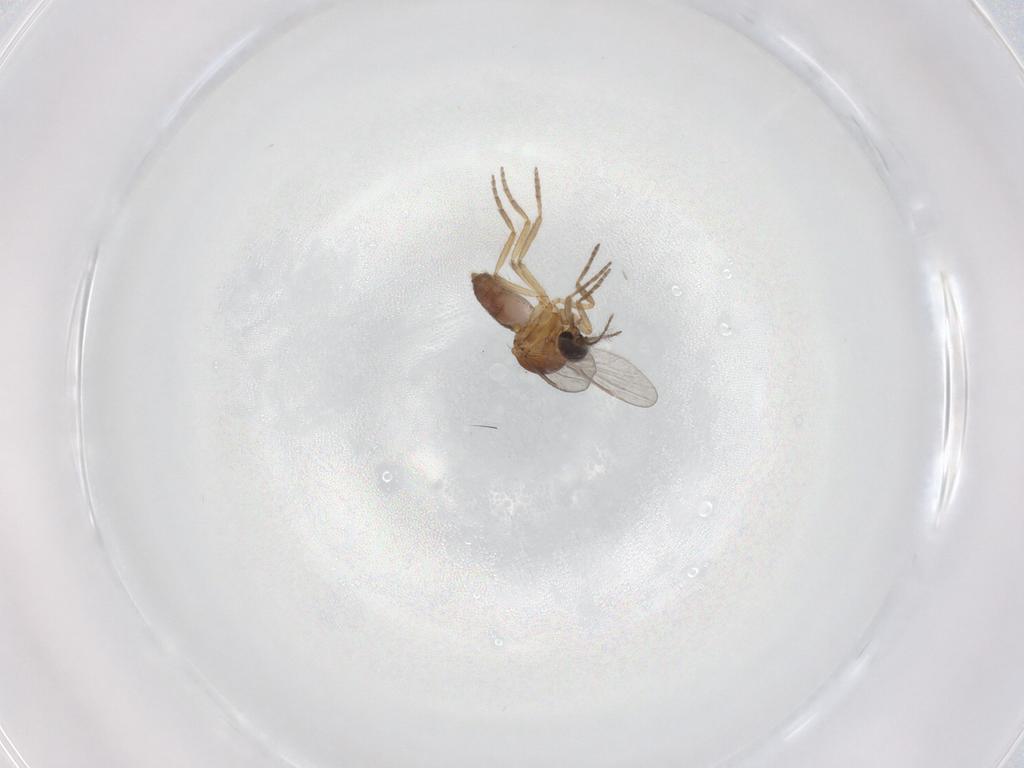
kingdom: Animalia
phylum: Arthropoda
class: Insecta
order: Diptera
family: Ceratopogonidae
